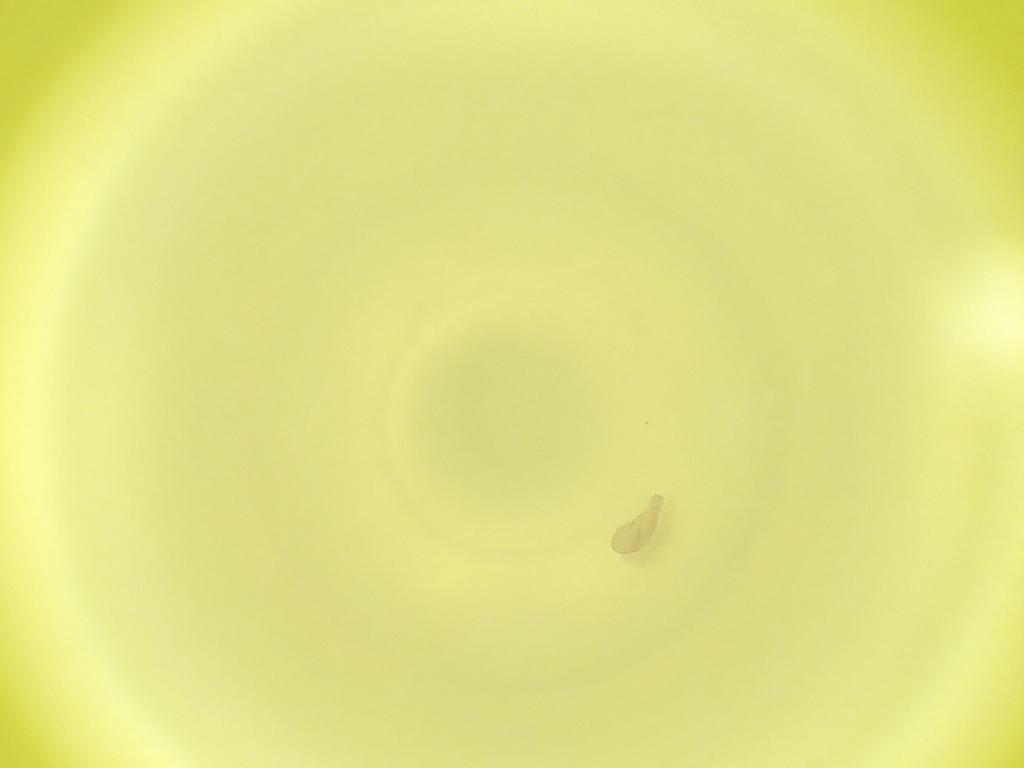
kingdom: Animalia
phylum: Arthropoda
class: Insecta
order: Diptera
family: Cecidomyiidae
